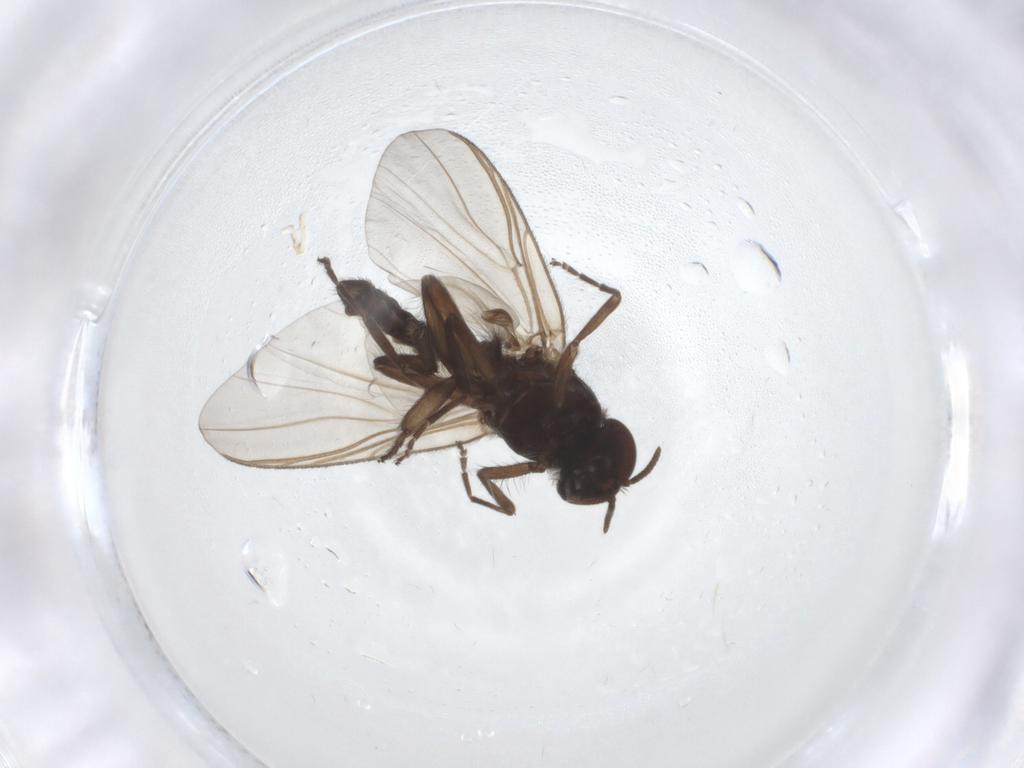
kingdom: Animalia
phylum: Arthropoda
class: Insecta
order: Diptera
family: Simuliidae
